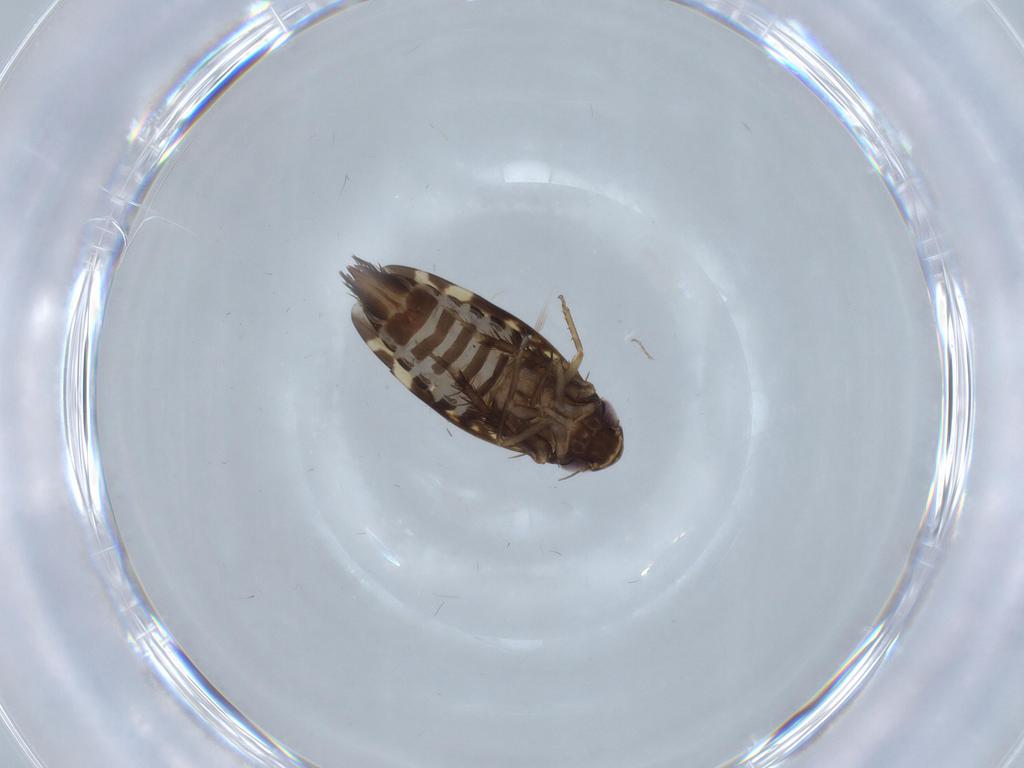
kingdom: Animalia
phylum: Arthropoda
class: Insecta
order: Hemiptera
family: Cicadellidae
